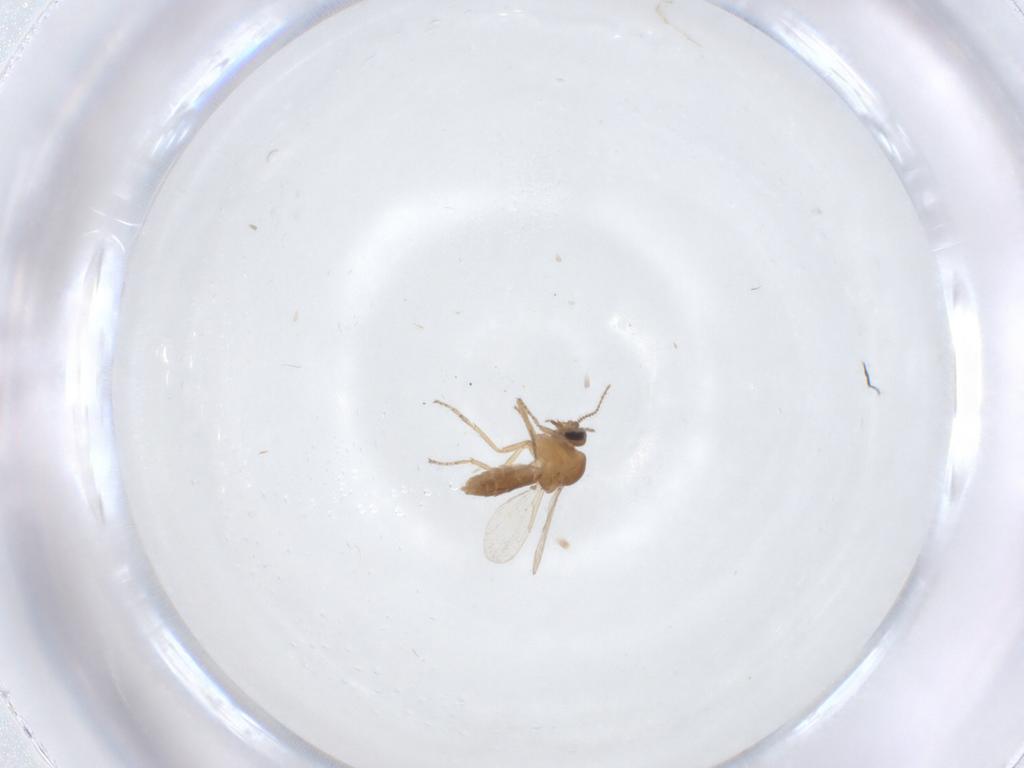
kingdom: Animalia
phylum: Arthropoda
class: Insecta
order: Diptera
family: Ceratopogonidae
